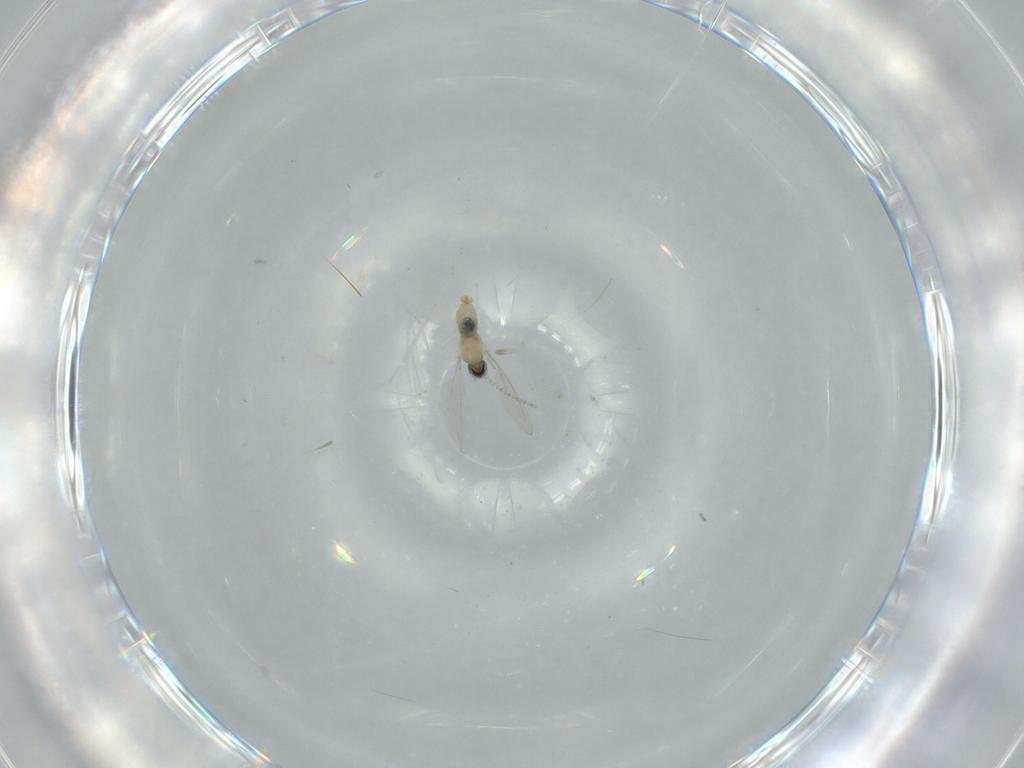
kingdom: Animalia
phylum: Arthropoda
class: Insecta
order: Diptera
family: Cecidomyiidae
